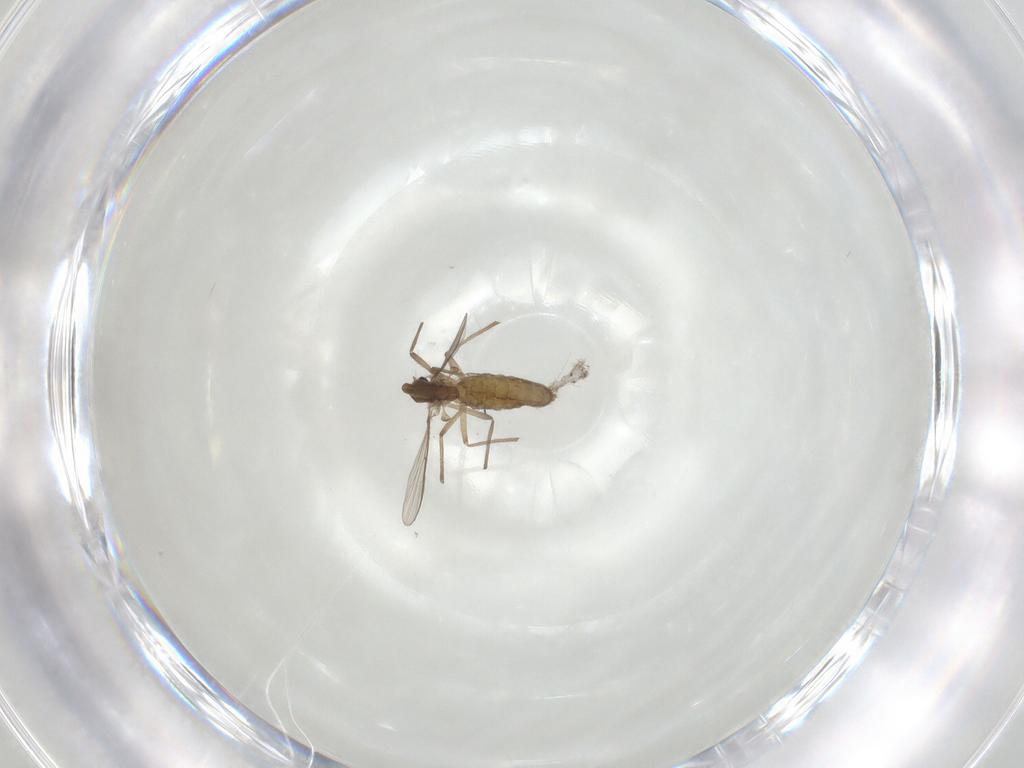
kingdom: Animalia
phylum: Arthropoda
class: Insecta
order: Diptera
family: Chironomidae
